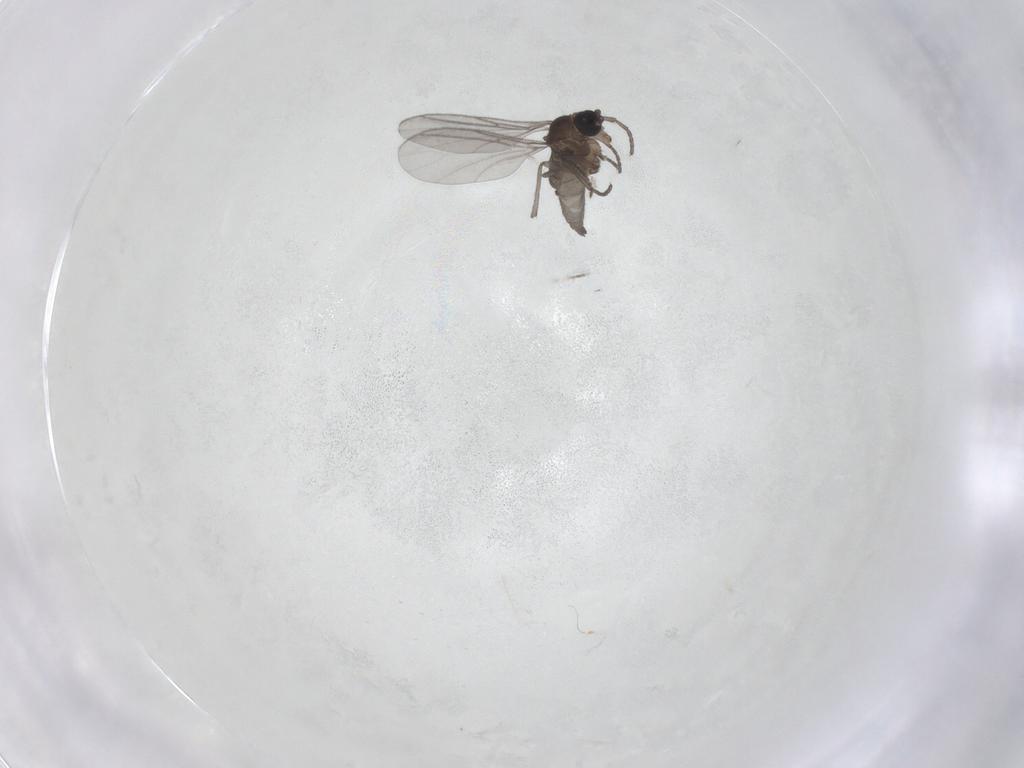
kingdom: Animalia
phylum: Arthropoda
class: Insecta
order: Diptera
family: Ceratopogonidae
